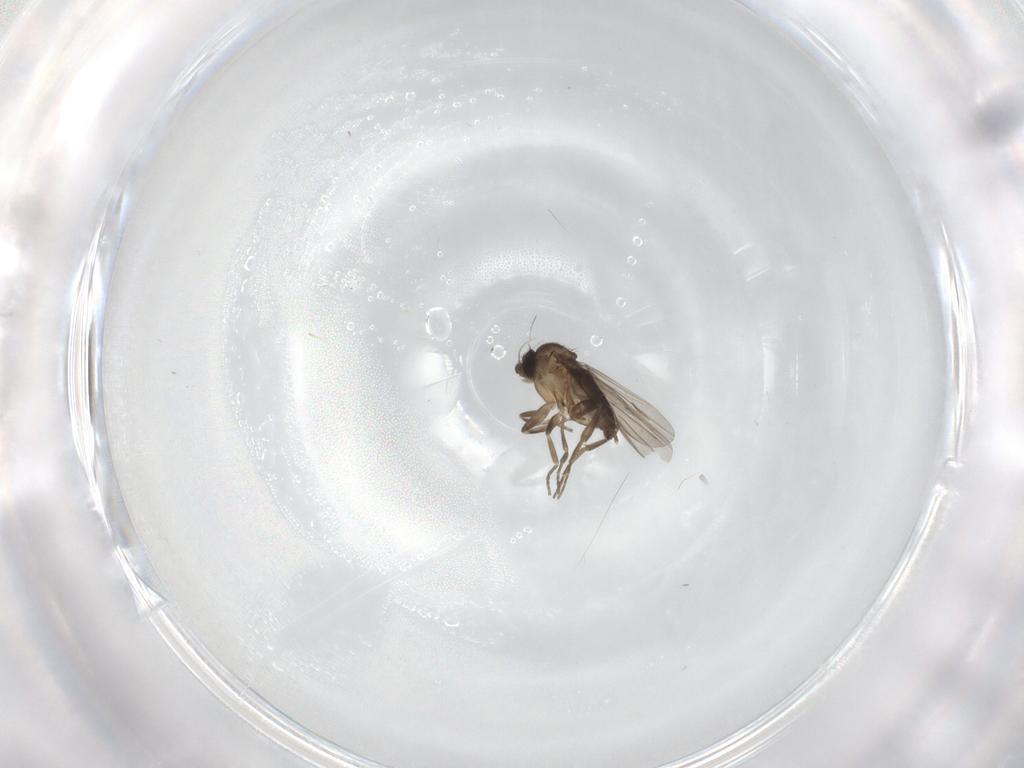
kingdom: Animalia
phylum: Arthropoda
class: Insecta
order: Diptera
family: Phoridae
